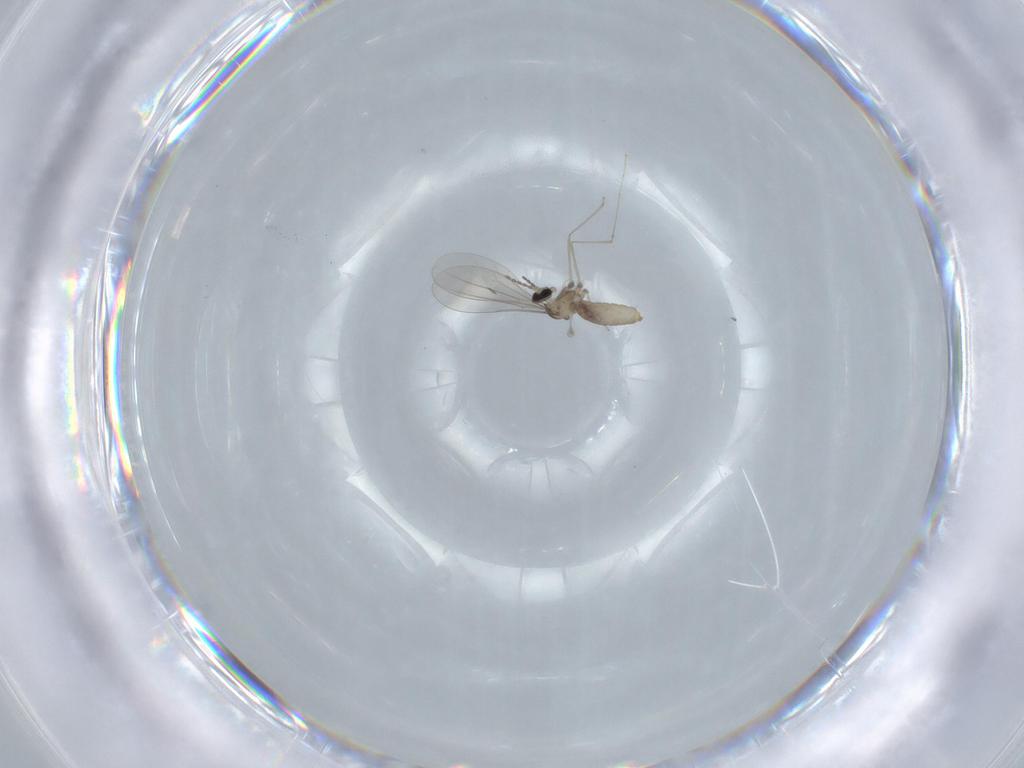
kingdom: Animalia
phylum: Arthropoda
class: Insecta
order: Diptera
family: Cecidomyiidae
